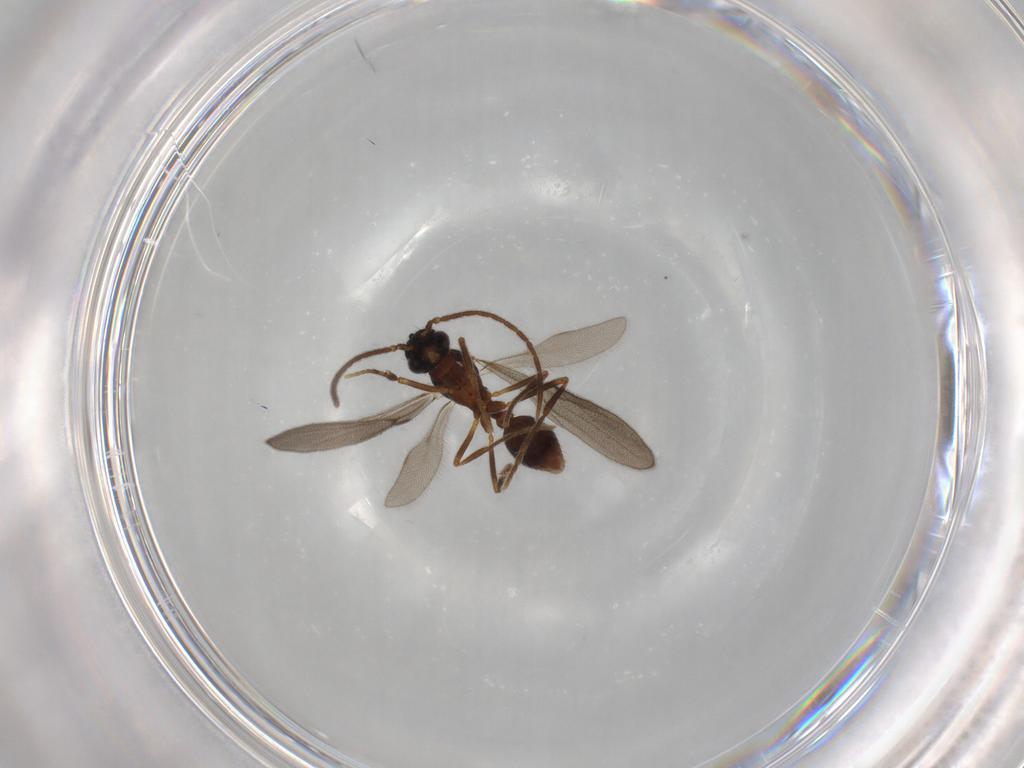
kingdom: Animalia
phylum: Arthropoda
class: Insecta
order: Hymenoptera
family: Formicidae
